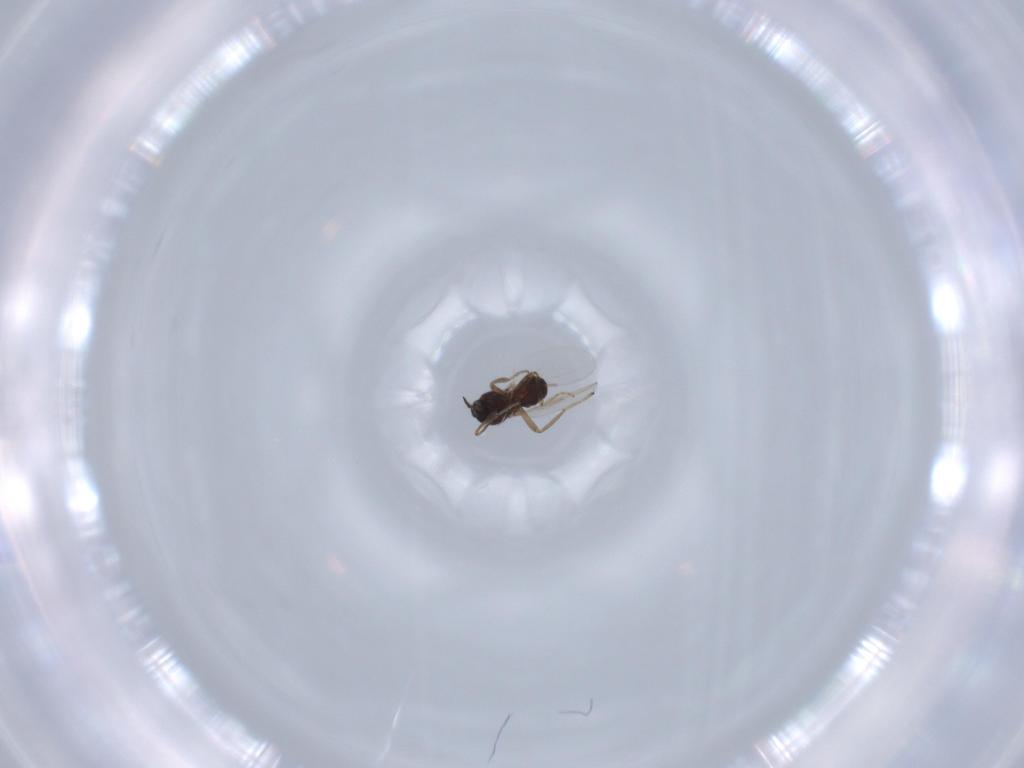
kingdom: Animalia
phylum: Arthropoda
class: Insecta
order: Diptera
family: Ceratopogonidae
